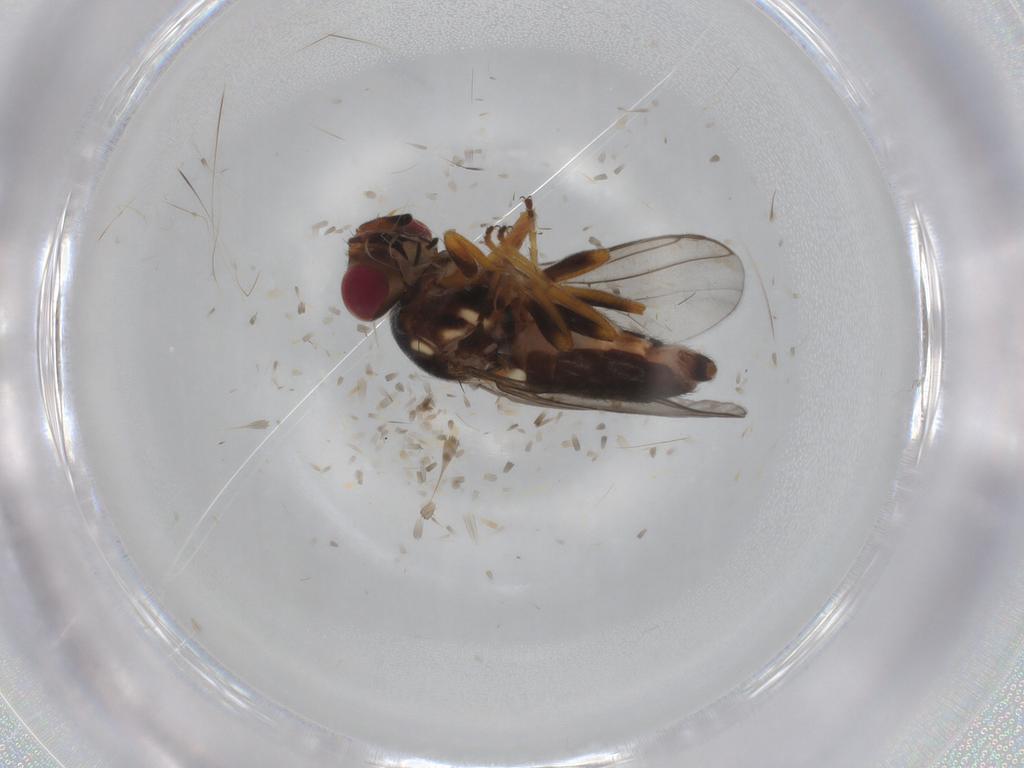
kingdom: Animalia
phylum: Arthropoda
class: Insecta
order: Diptera
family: Chloropidae
